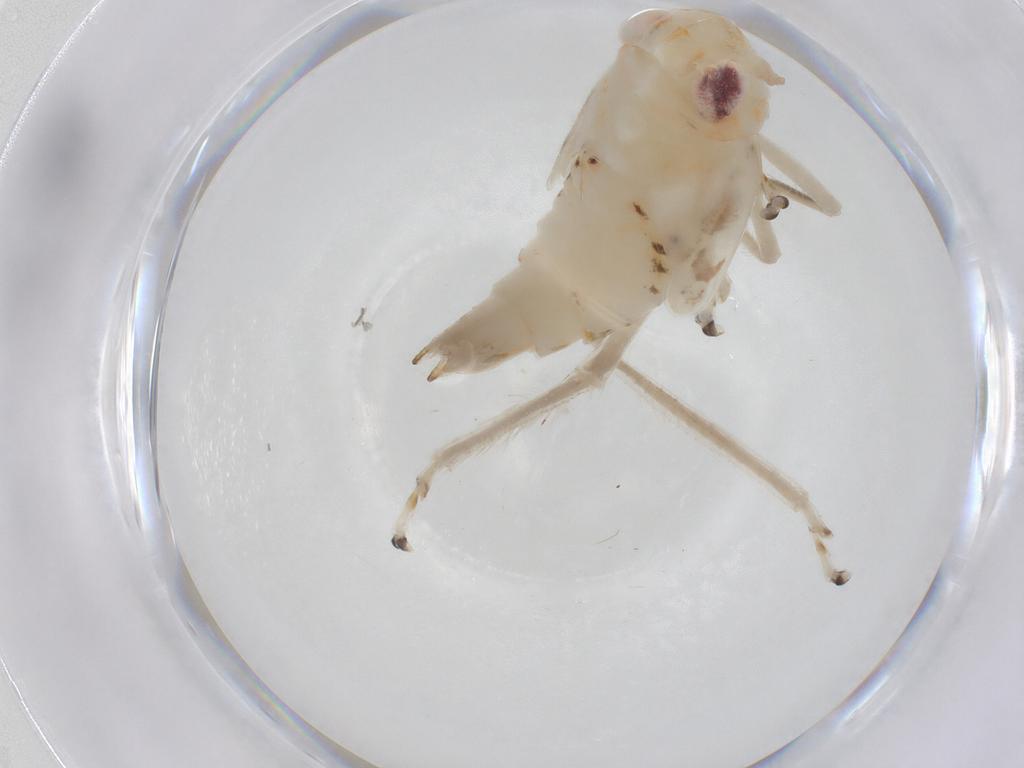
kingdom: Animalia
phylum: Arthropoda
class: Insecta
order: Hemiptera
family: Cicadellidae
